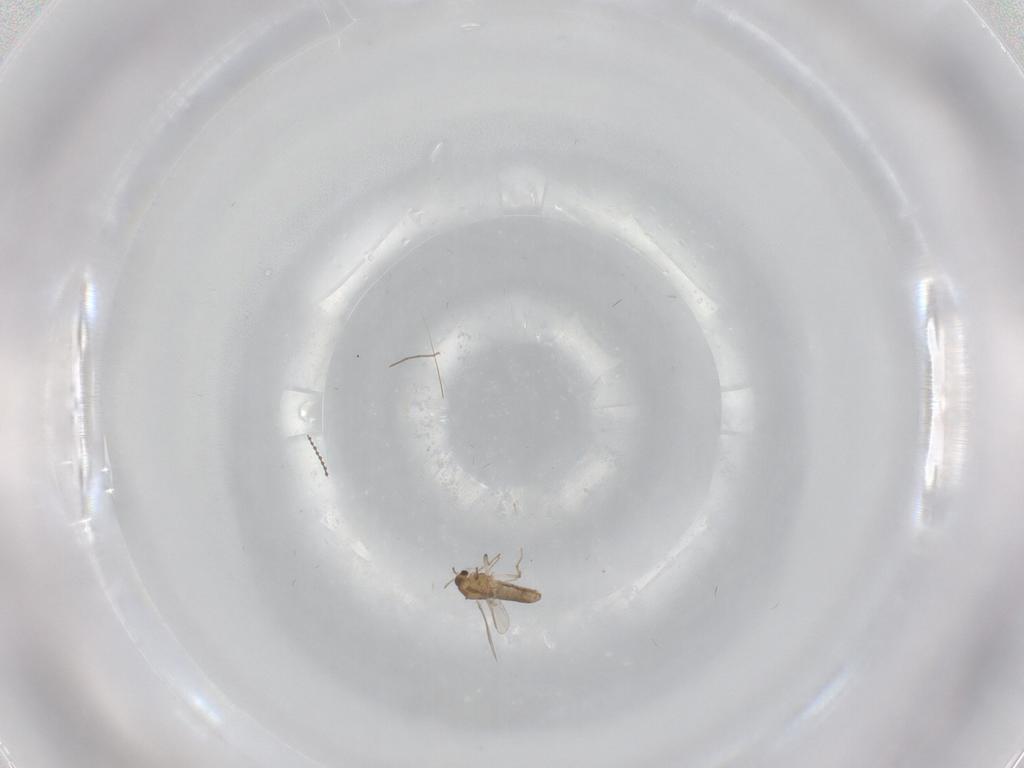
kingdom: Animalia
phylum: Arthropoda
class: Insecta
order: Diptera
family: Chironomidae
